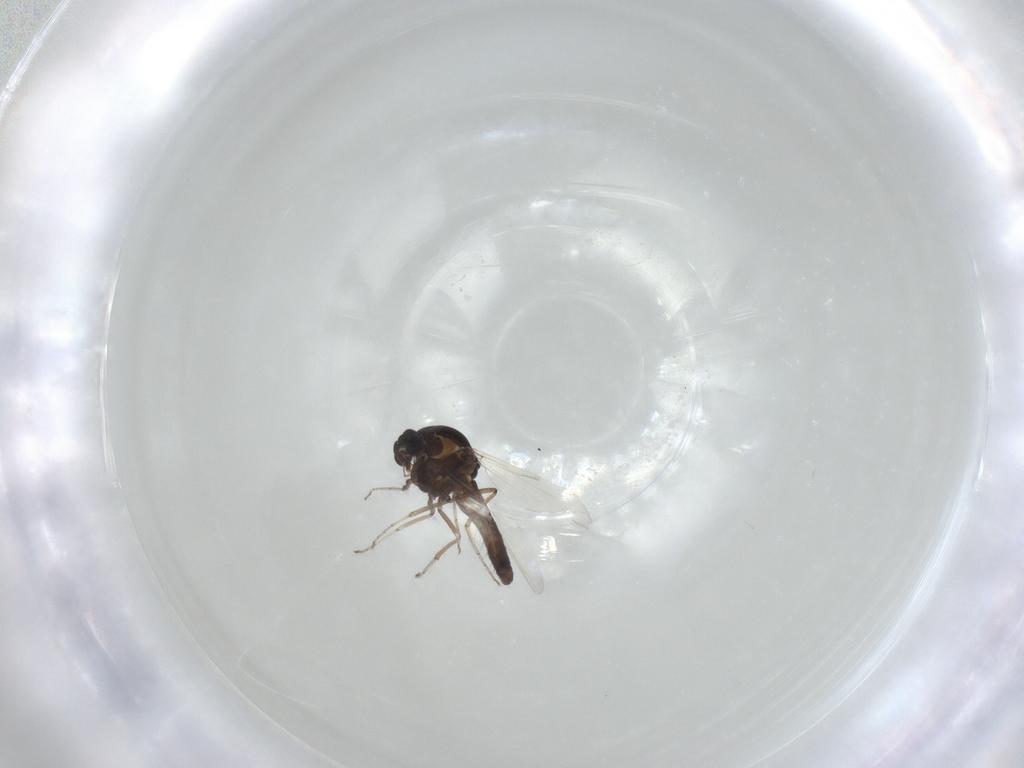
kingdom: Animalia
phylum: Arthropoda
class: Insecta
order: Diptera
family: Ceratopogonidae
